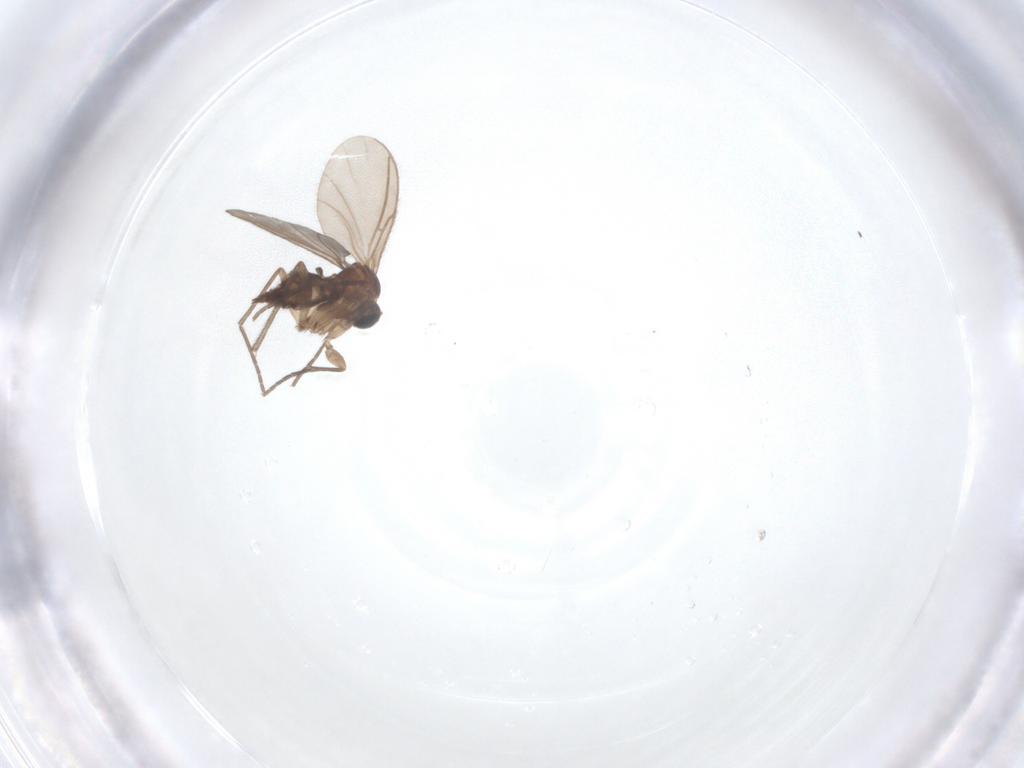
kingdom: Animalia
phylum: Arthropoda
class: Insecta
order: Diptera
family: Sciaridae
